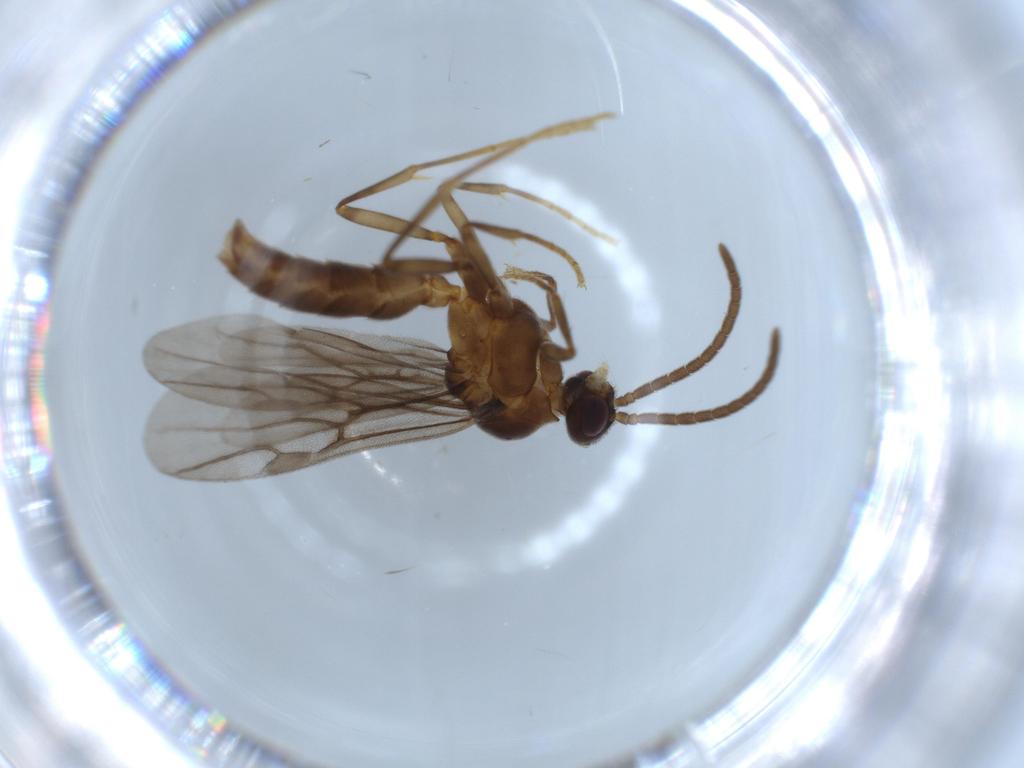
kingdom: Animalia
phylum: Arthropoda
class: Insecta
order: Hymenoptera
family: Formicidae
